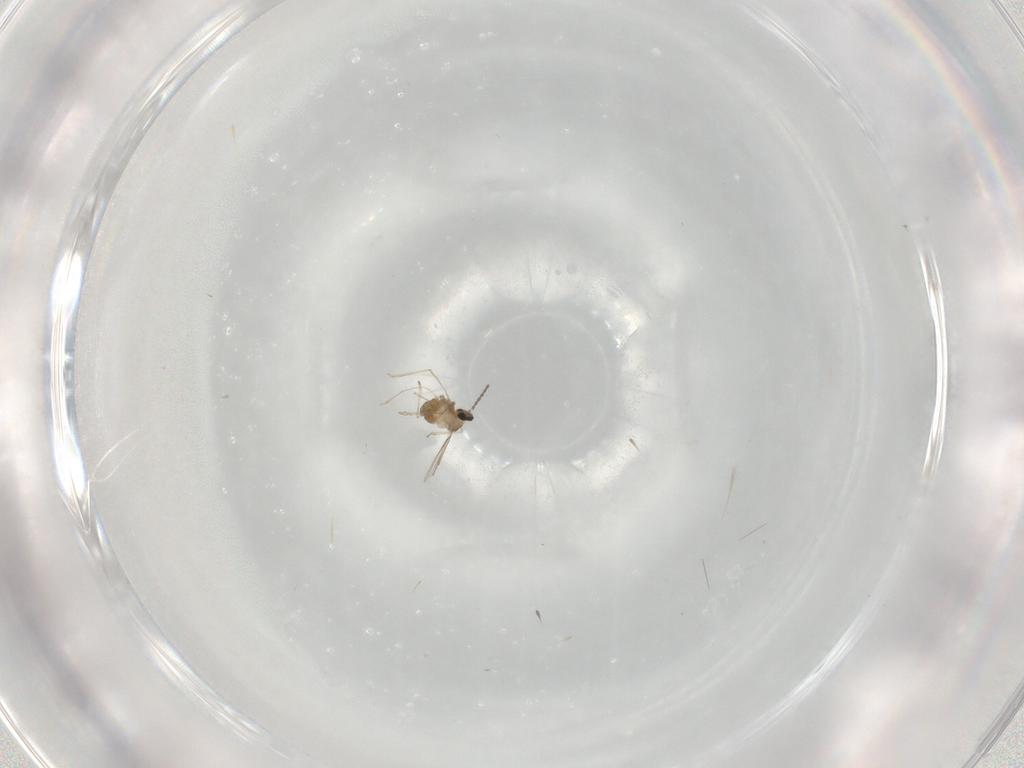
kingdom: Animalia
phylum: Arthropoda
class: Insecta
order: Diptera
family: Cecidomyiidae
